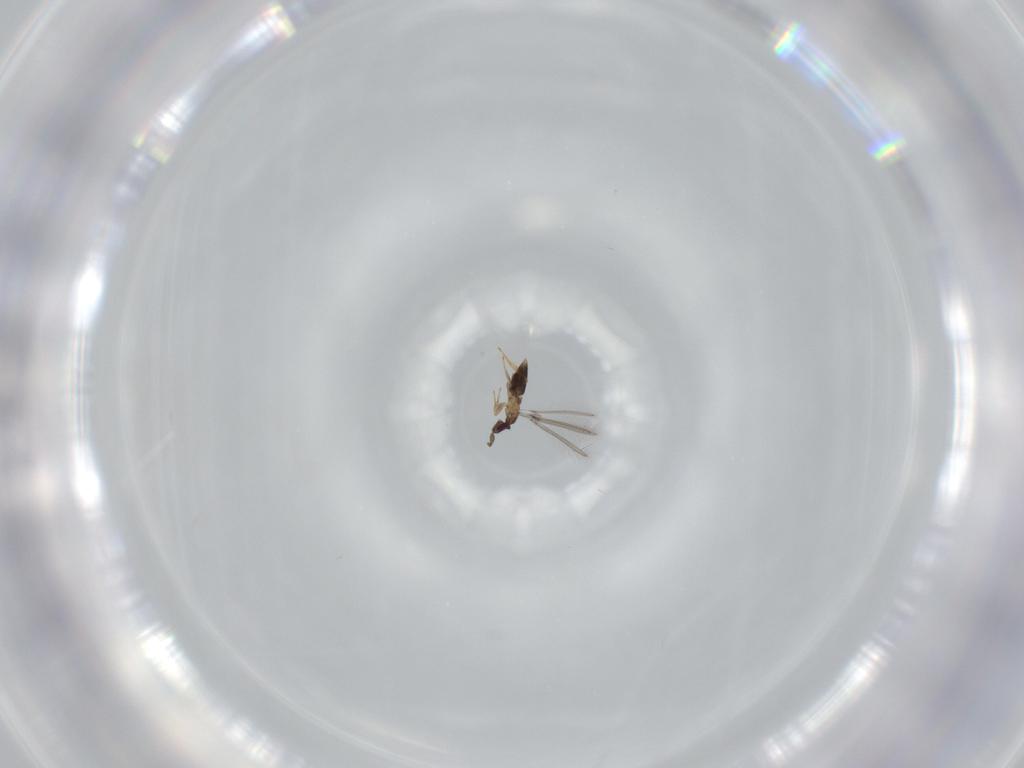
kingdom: Animalia
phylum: Arthropoda
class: Insecta
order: Hymenoptera
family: Mymaridae
